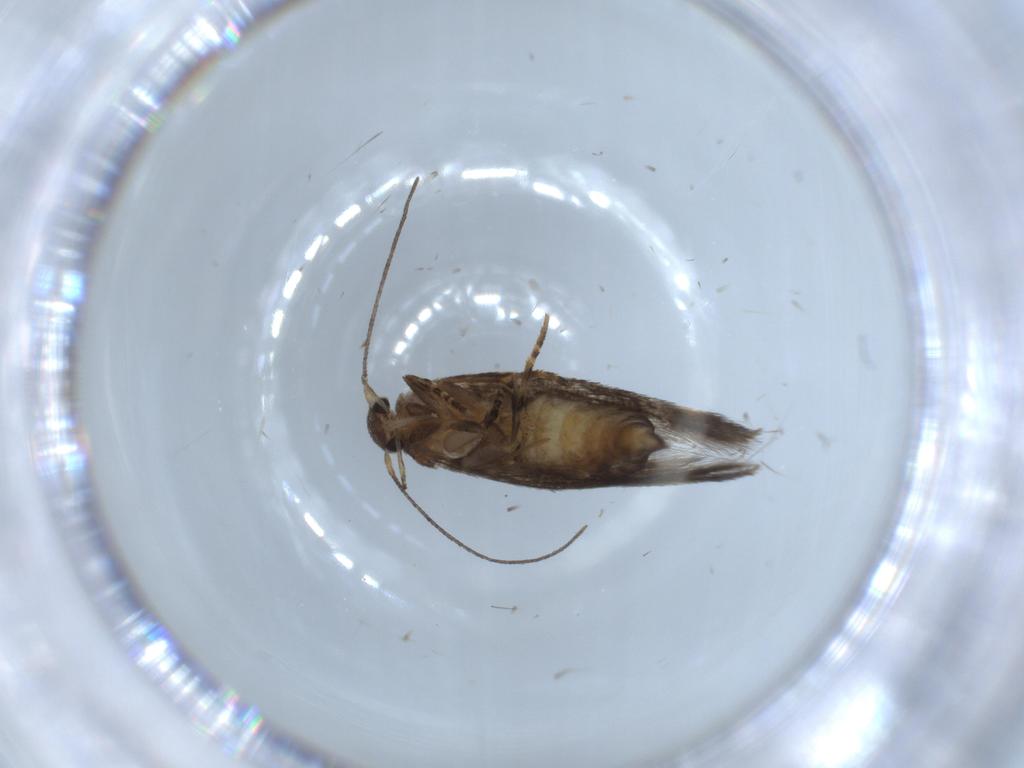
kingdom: Animalia
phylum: Arthropoda
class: Insecta
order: Lepidoptera
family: Elachistidae
